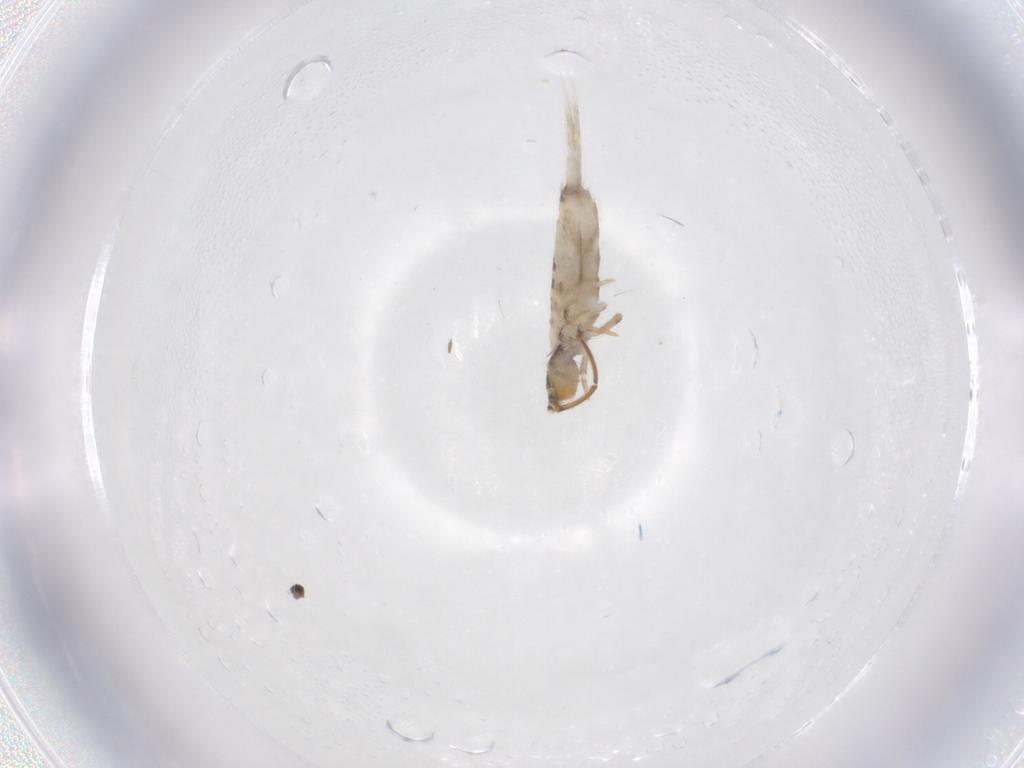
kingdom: Animalia
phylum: Arthropoda
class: Collembola
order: Entomobryomorpha
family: Entomobryidae
